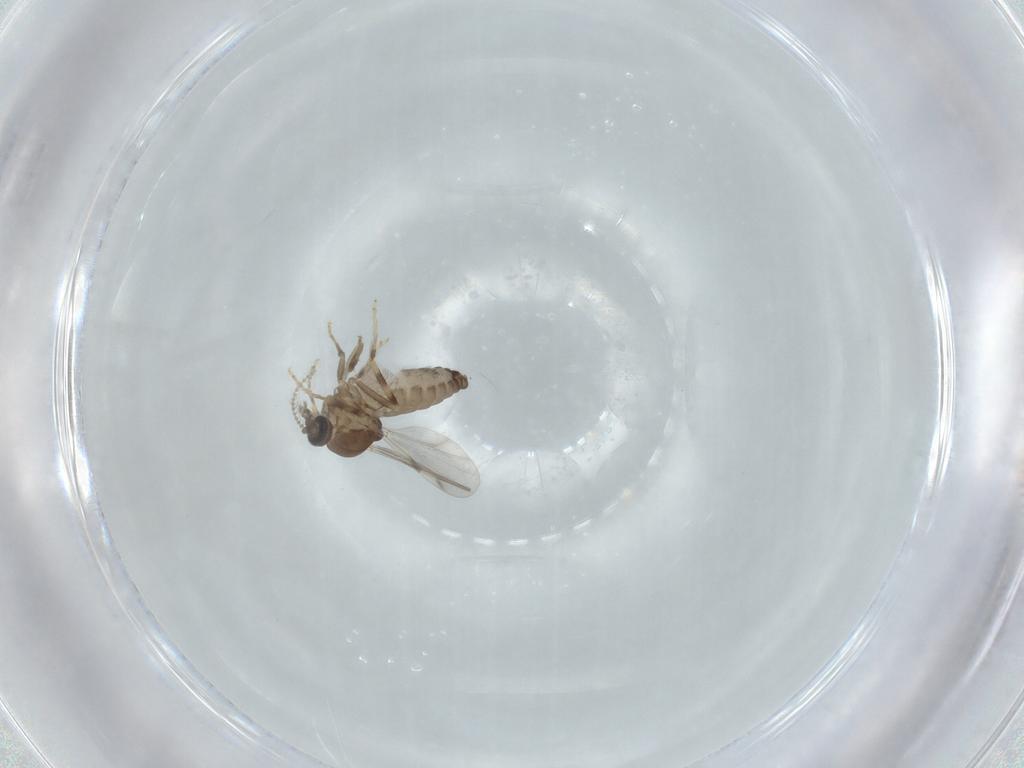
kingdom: Animalia
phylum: Arthropoda
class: Insecta
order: Diptera
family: Ceratopogonidae
